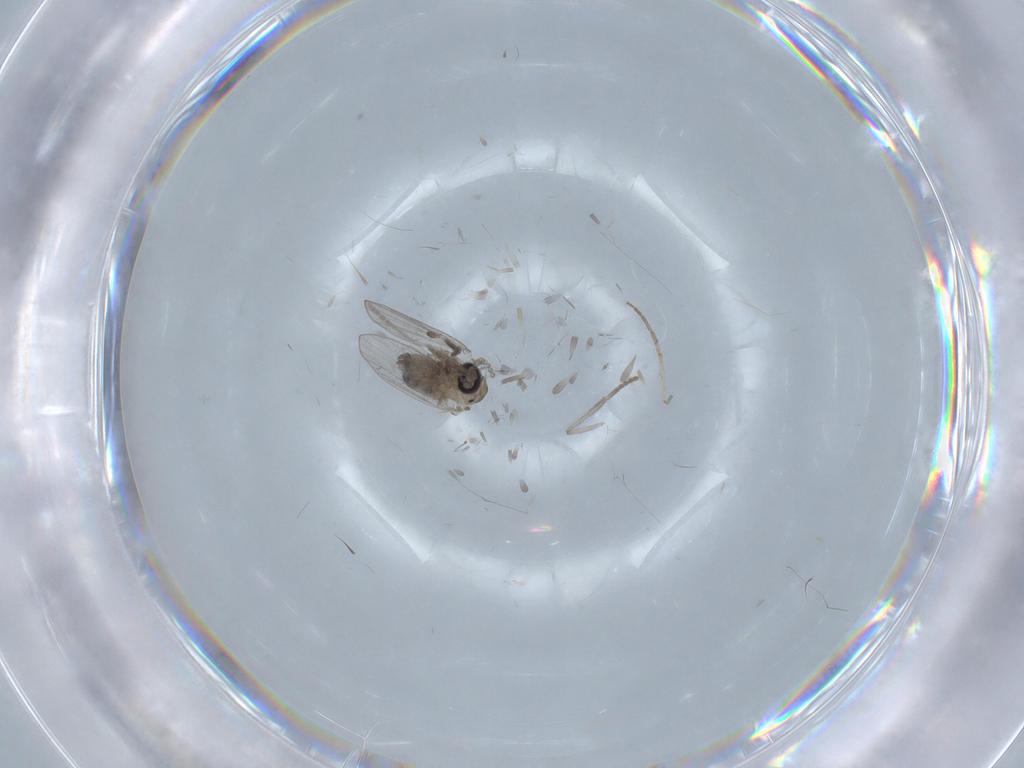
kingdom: Animalia
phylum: Arthropoda
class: Insecta
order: Diptera
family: Psychodidae
